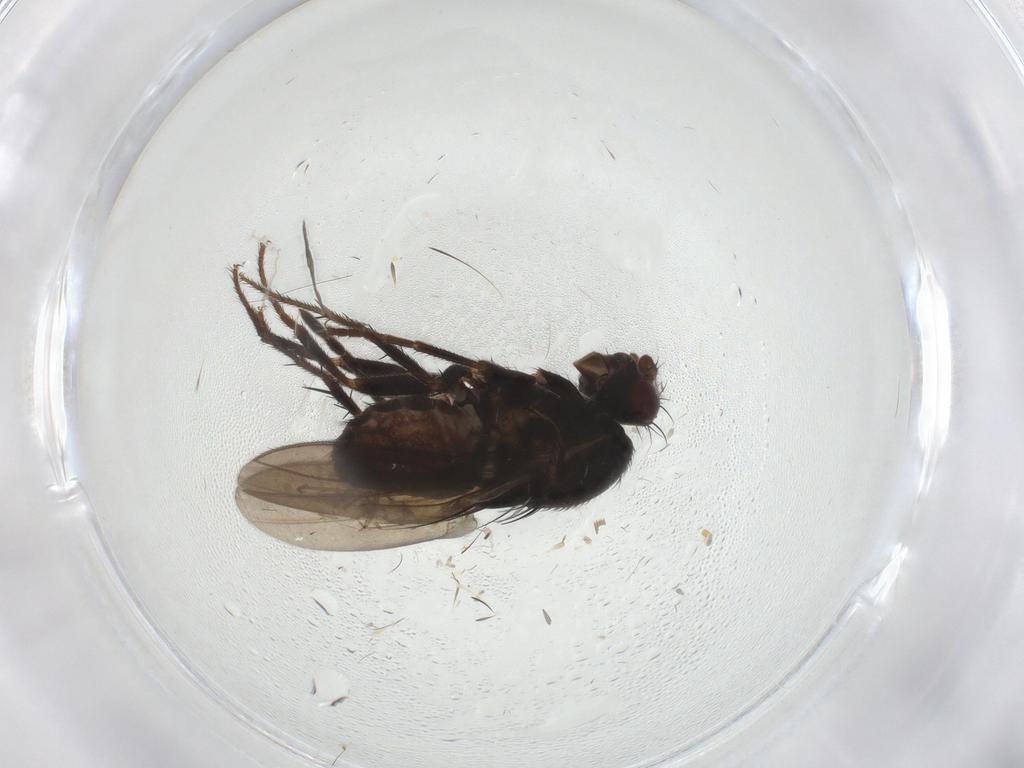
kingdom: Animalia
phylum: Arthropoda
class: Insecta
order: Diptera
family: Sphaeroceridae
